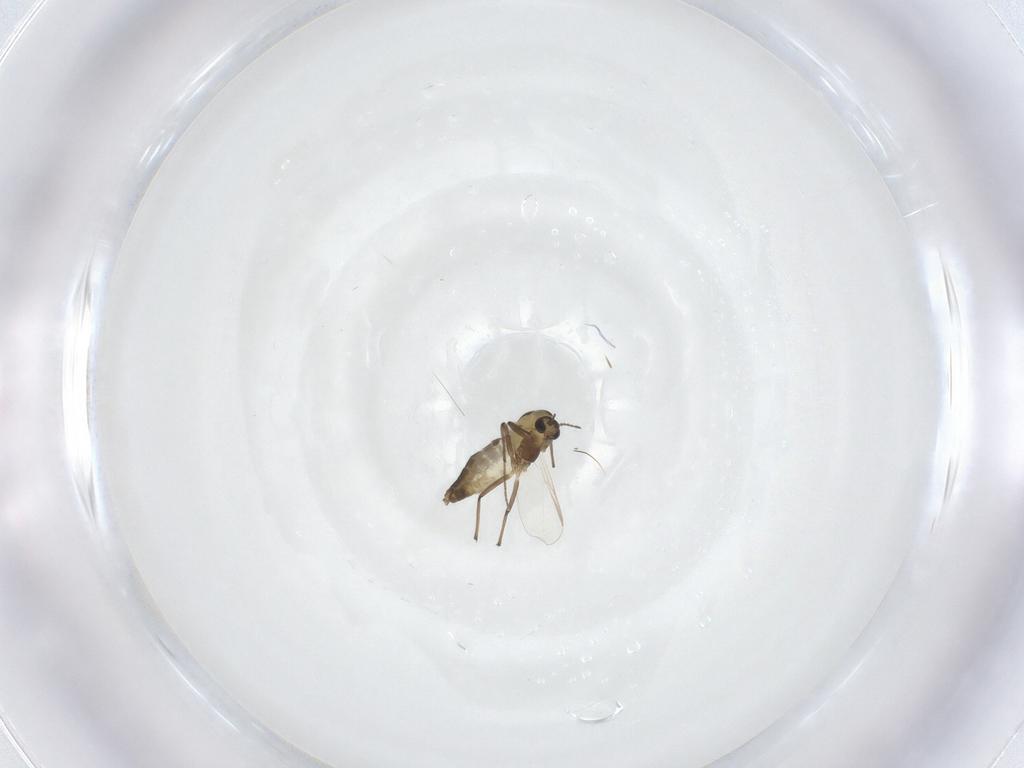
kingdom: Animalia
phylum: Arthropoda
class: Insecta
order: Diptera
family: Chironomidae
